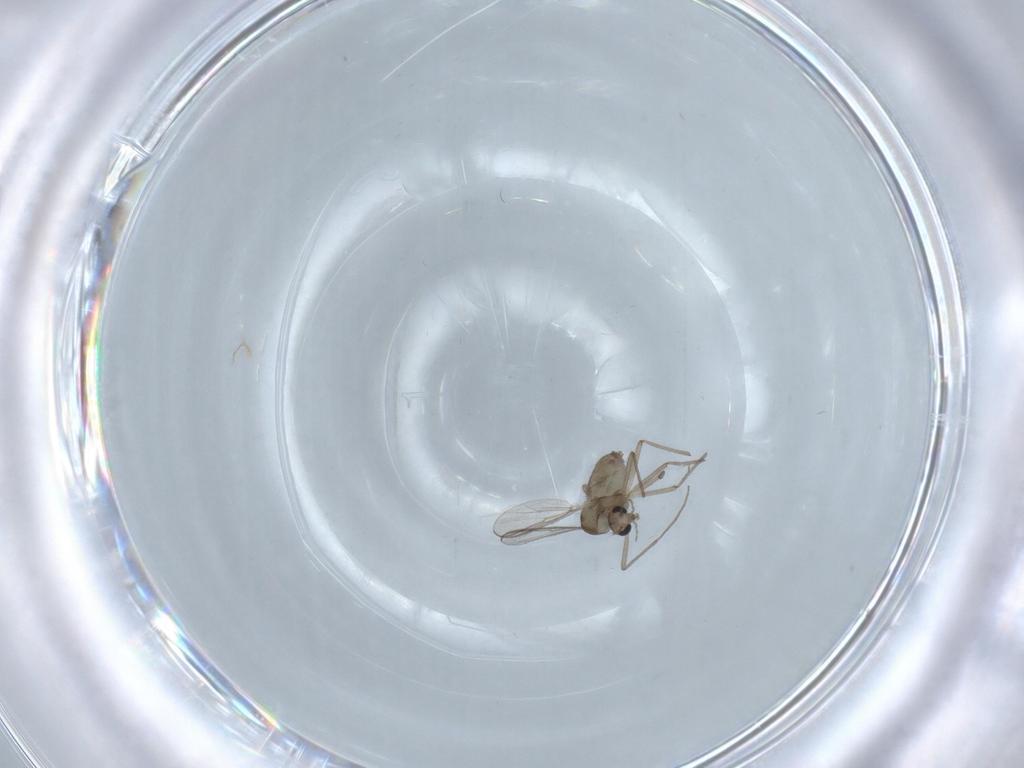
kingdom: Animalia
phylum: Arthropoda
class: Insecta
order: Diptera
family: Chironomidae
